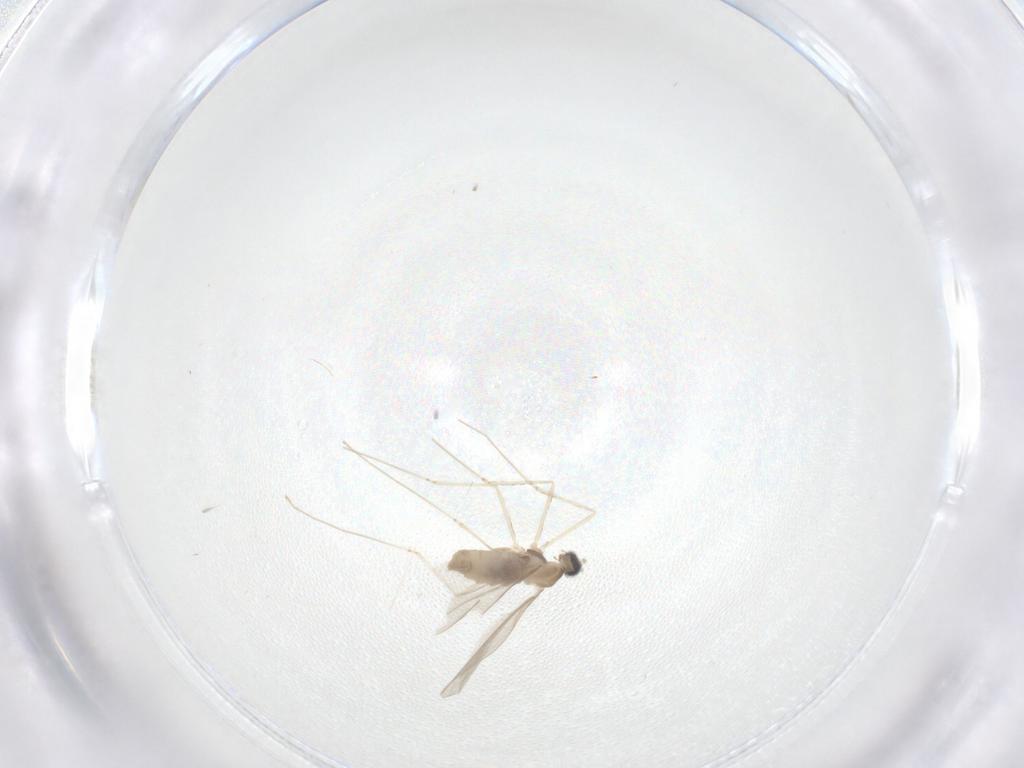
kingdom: Animalia
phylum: Arthropoda
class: Insecta
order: Diptera
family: Cecidomyiidae
